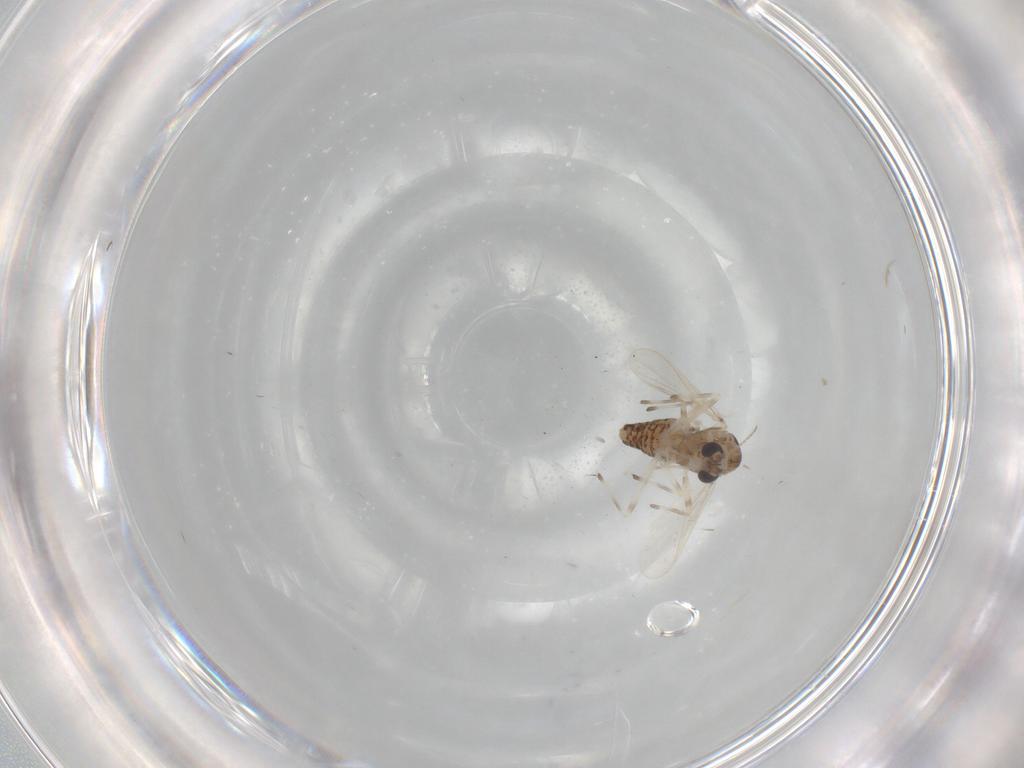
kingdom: Animalia
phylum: Arthropoda
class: Insecta
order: Diptera
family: Chironomidae
